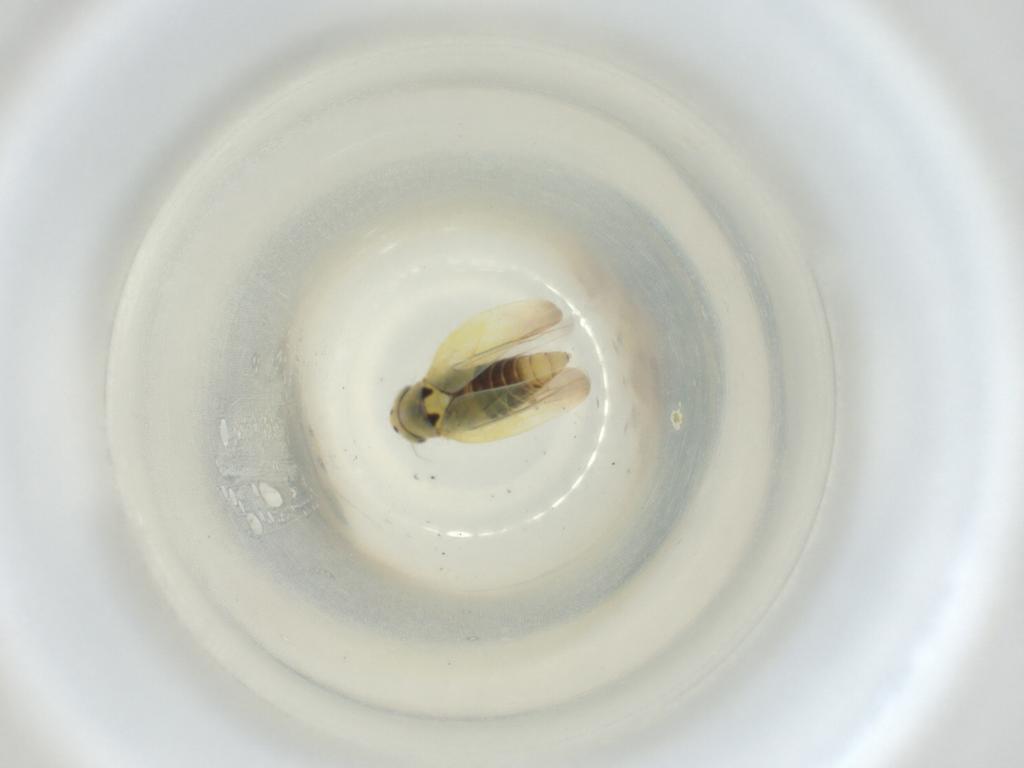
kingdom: Animalia
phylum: Arthropoda
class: Insecta
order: Hemiptera
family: Cicadellidae
